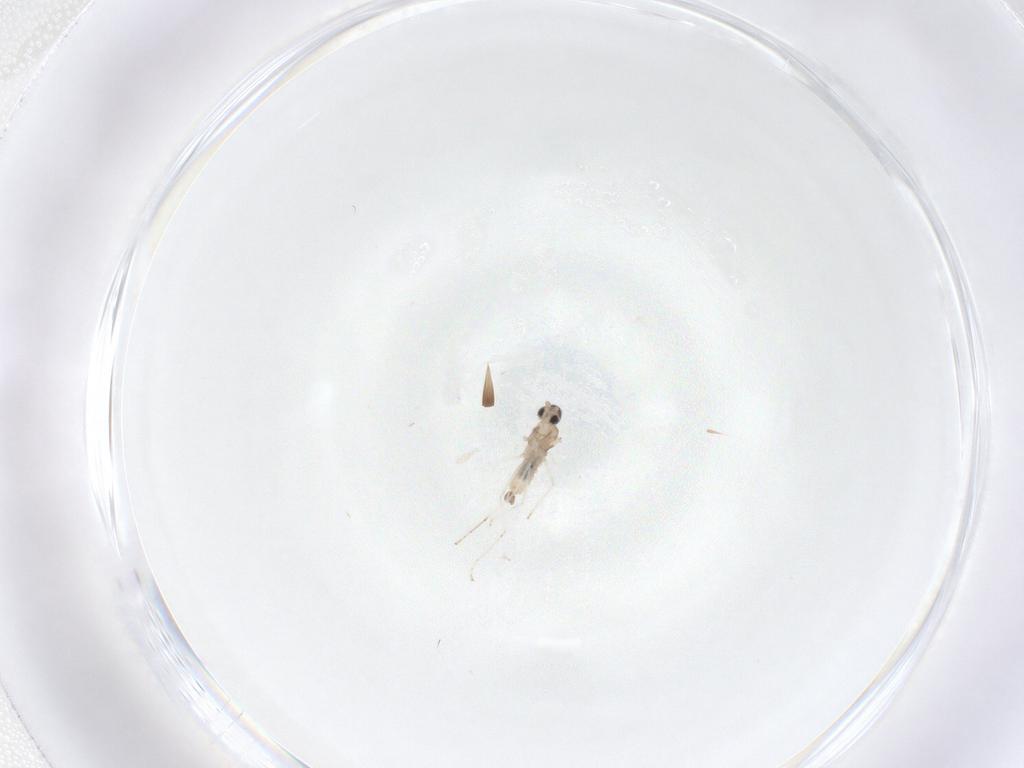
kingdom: Animalia
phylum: Arthropoda
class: Insecta
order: Diptera
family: Cecidomyiidae
